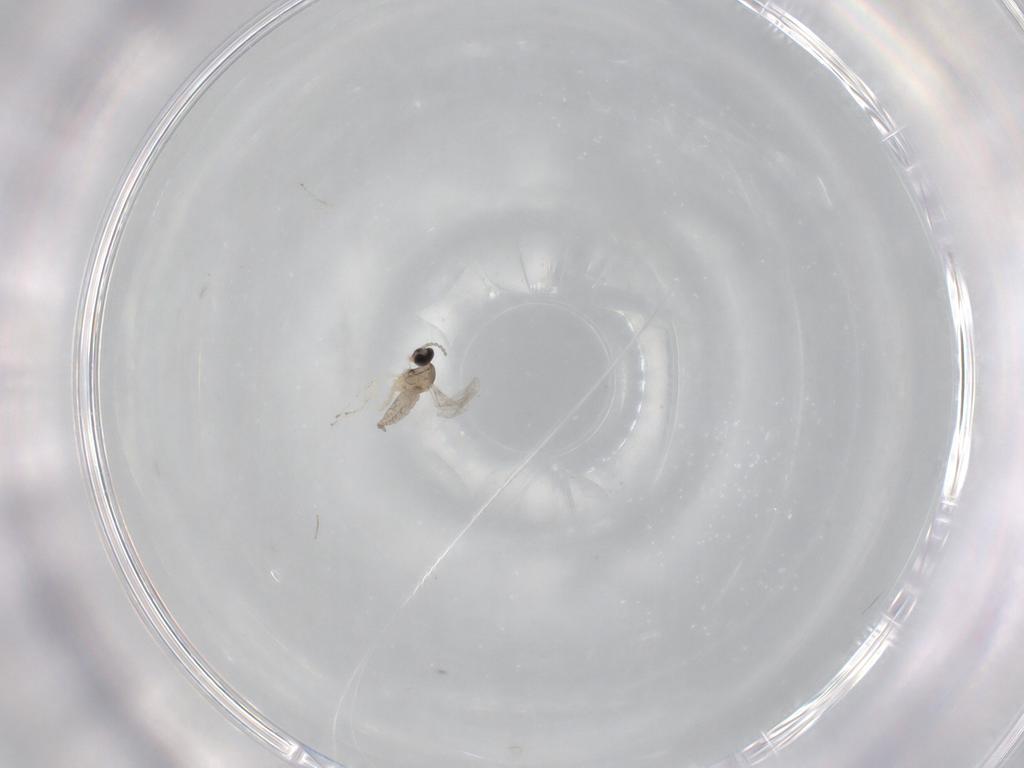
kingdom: Animalia
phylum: Arthropoda
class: Insecta
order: Diptera
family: Cecidomyiidae
